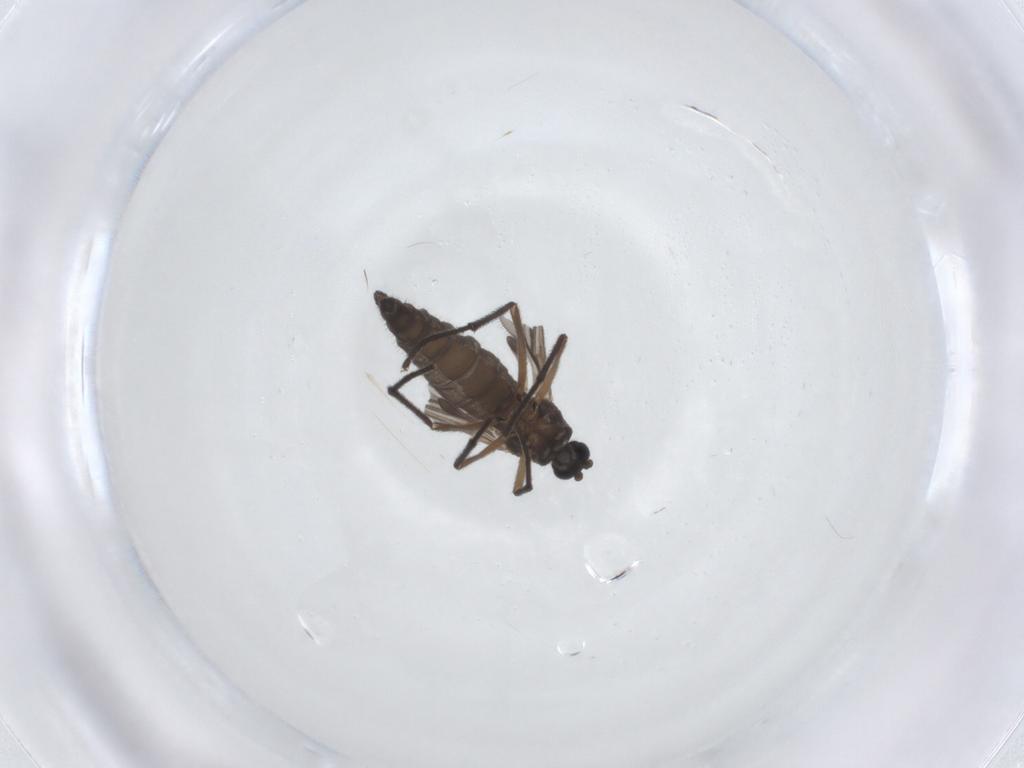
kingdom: Animalia
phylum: Arthropoda
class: Insecta
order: Diptera
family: Sciaridae
